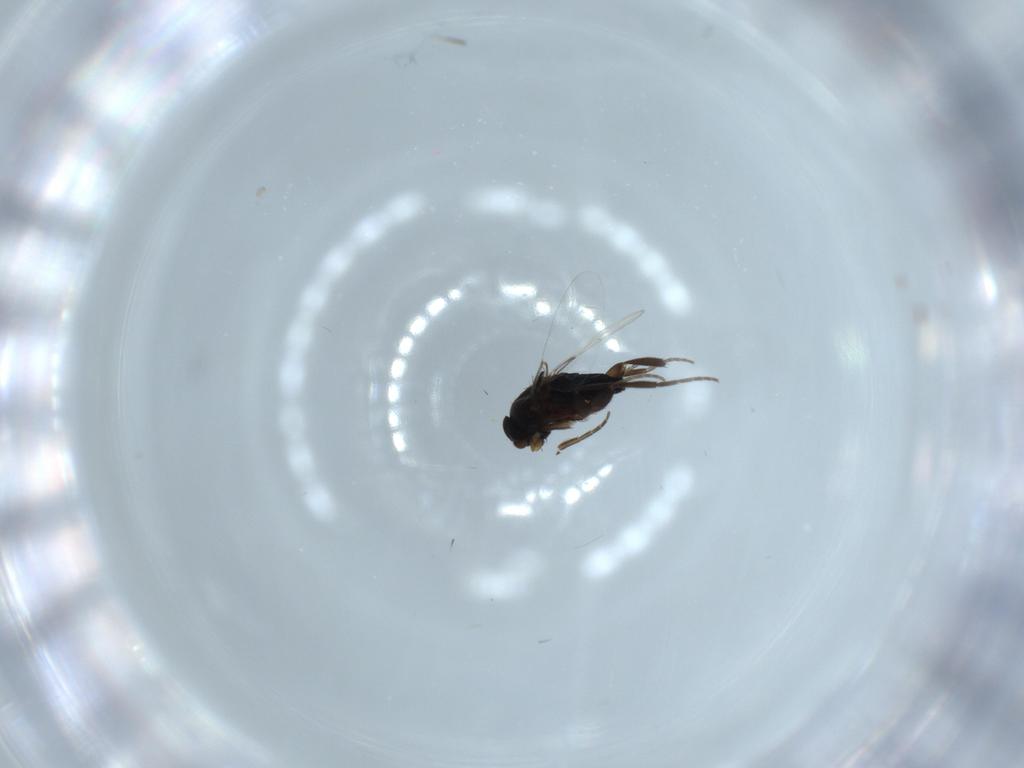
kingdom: Animalia
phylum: Arthropoda
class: Insecta
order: Diptera
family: Phoridae
